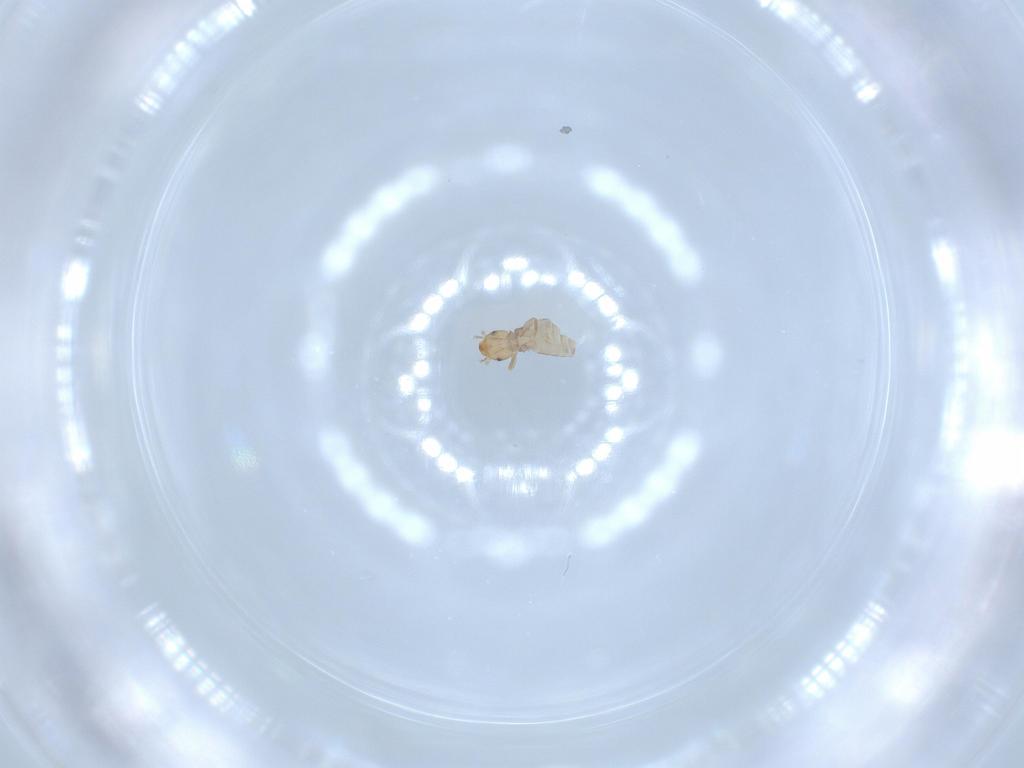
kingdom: Animalia
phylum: Arthropoda
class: Insecta
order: Psocodea
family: Liposcelididae
